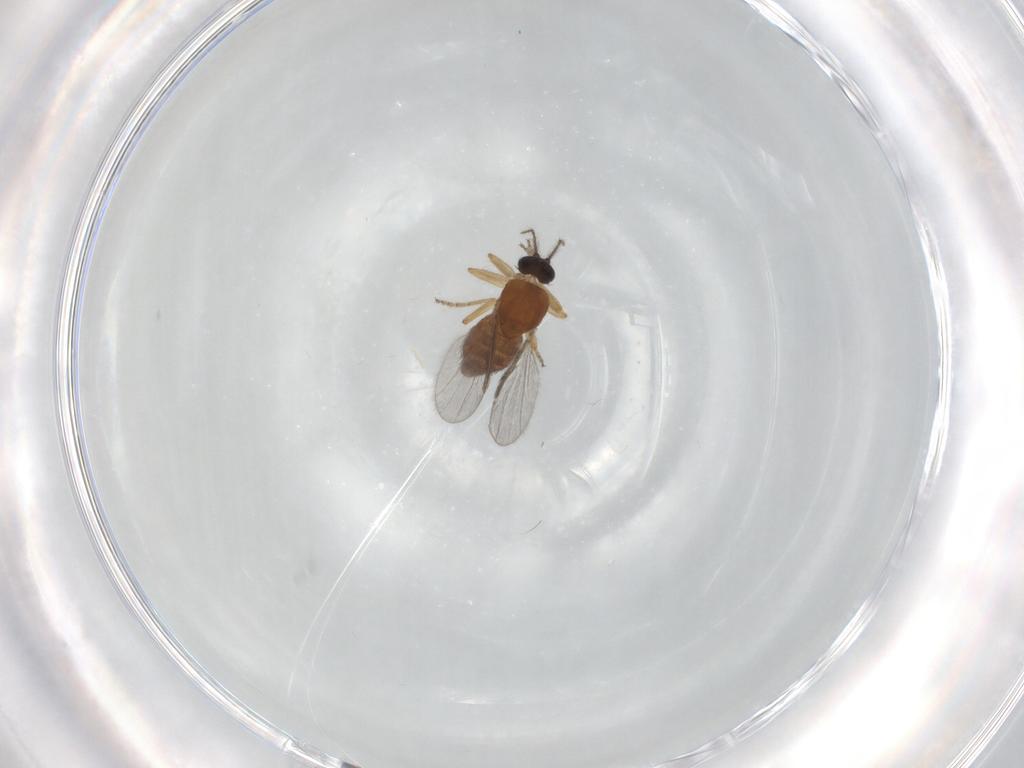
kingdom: Animalia
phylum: Arthropoda
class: Insecta
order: Diptera
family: Ceratopogonidae
